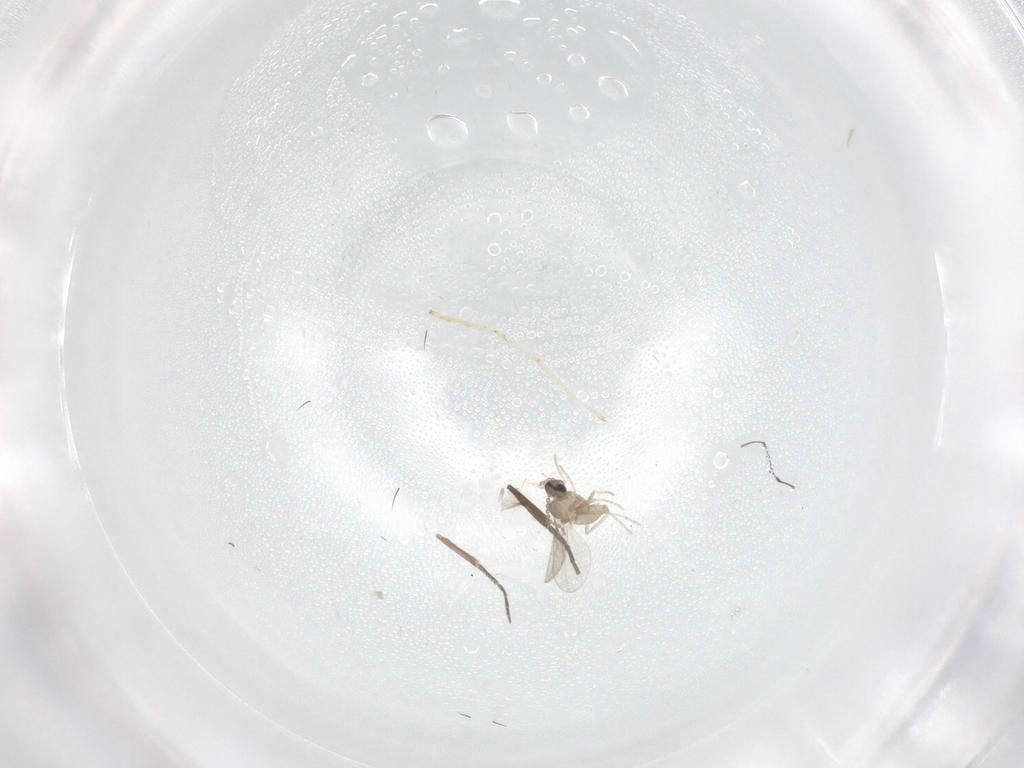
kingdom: Animalia
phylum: Arthropoda
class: Insecta
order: Diptera
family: Chironomidae
